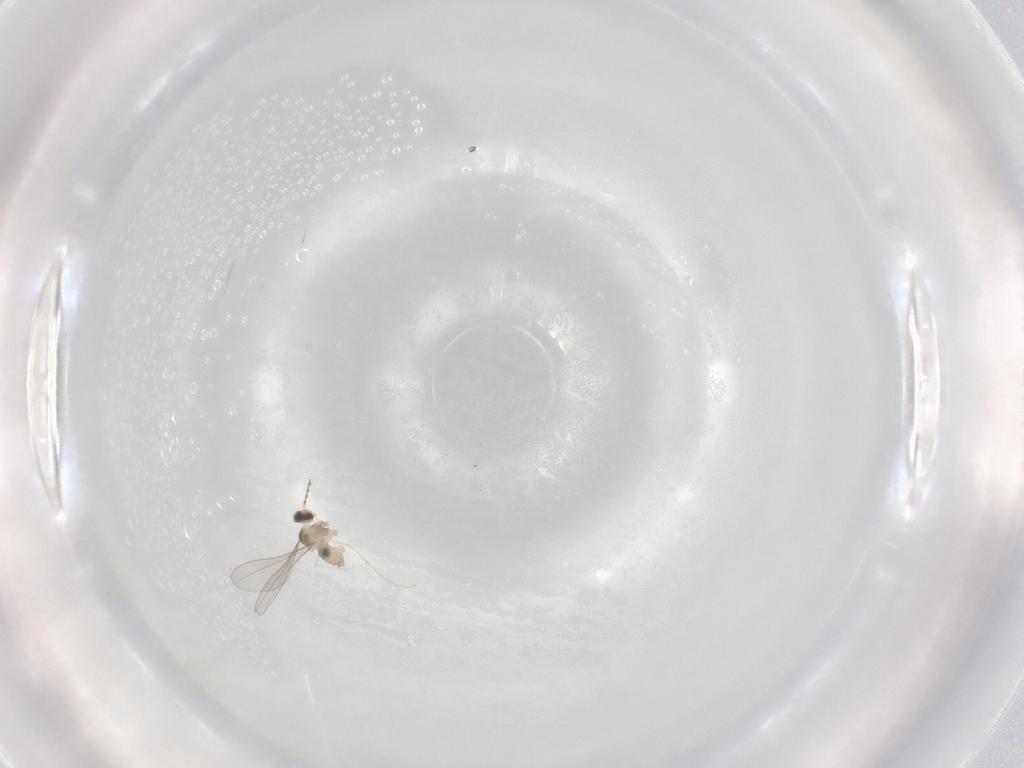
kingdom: Animalia
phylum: Arthropoda
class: Insecta
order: Diptera
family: Cecidomyiidae
